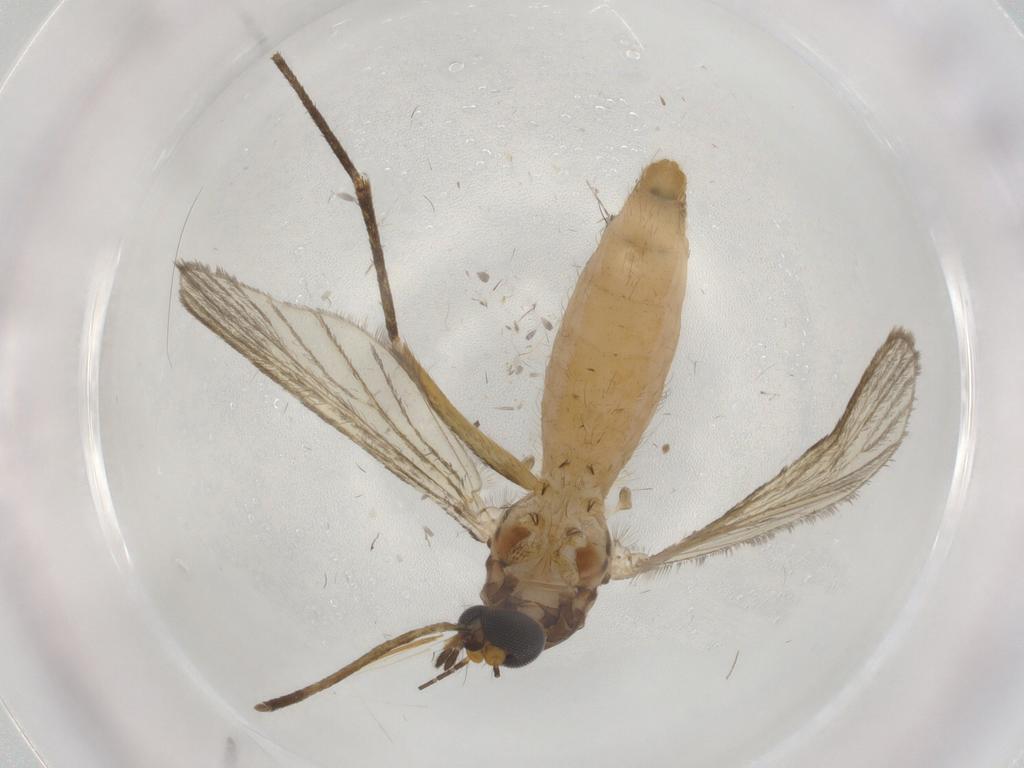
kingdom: Animalia
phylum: Arthropoda
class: Insecta
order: Diptera
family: Culicidae
